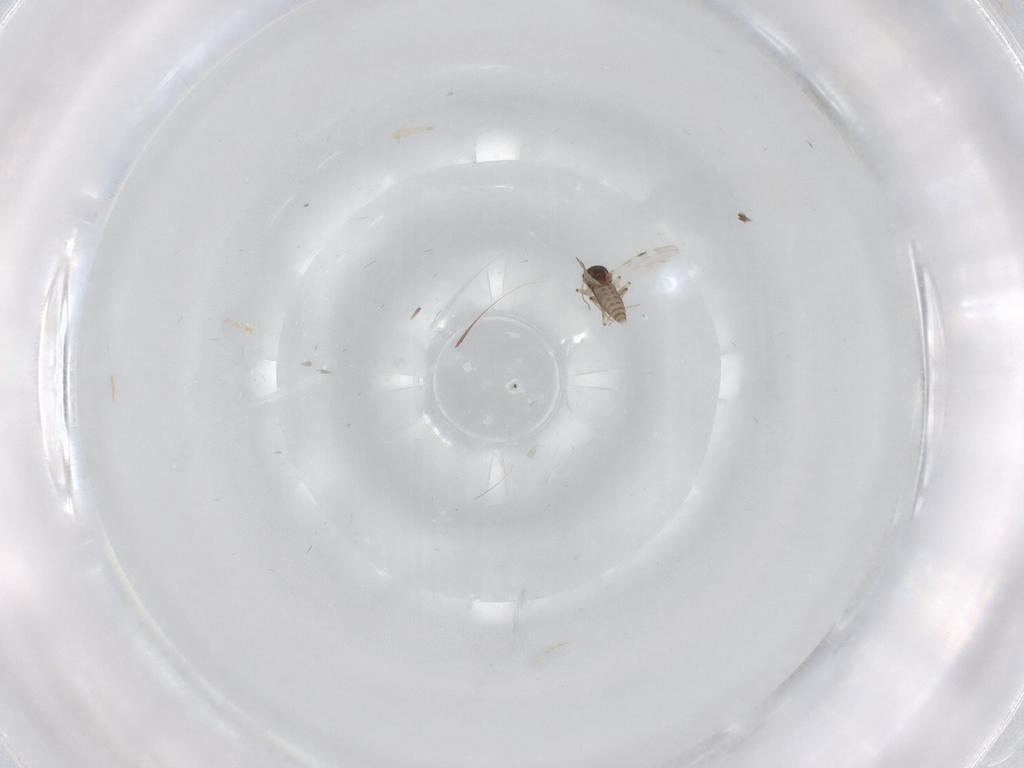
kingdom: Animalia
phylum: Arthropoda
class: Insecta
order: Diptera
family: Cecidomyiidae
